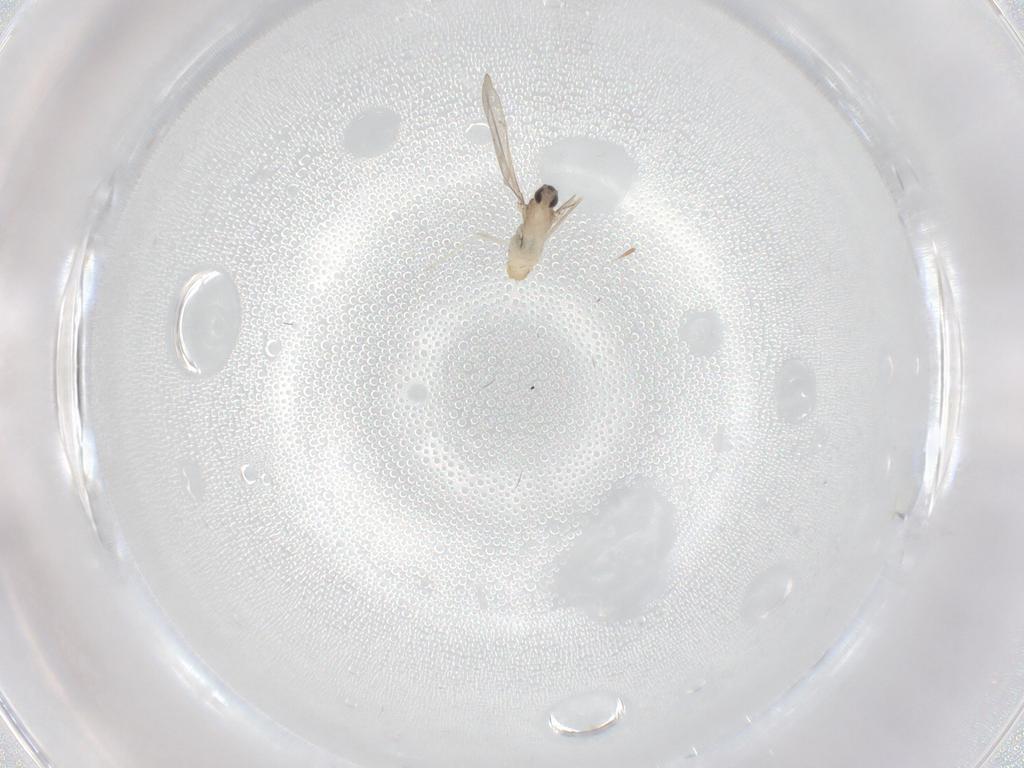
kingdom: Animalia
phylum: Arthropoda
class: Insecta
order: Diptera
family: Cecidomyiidae
